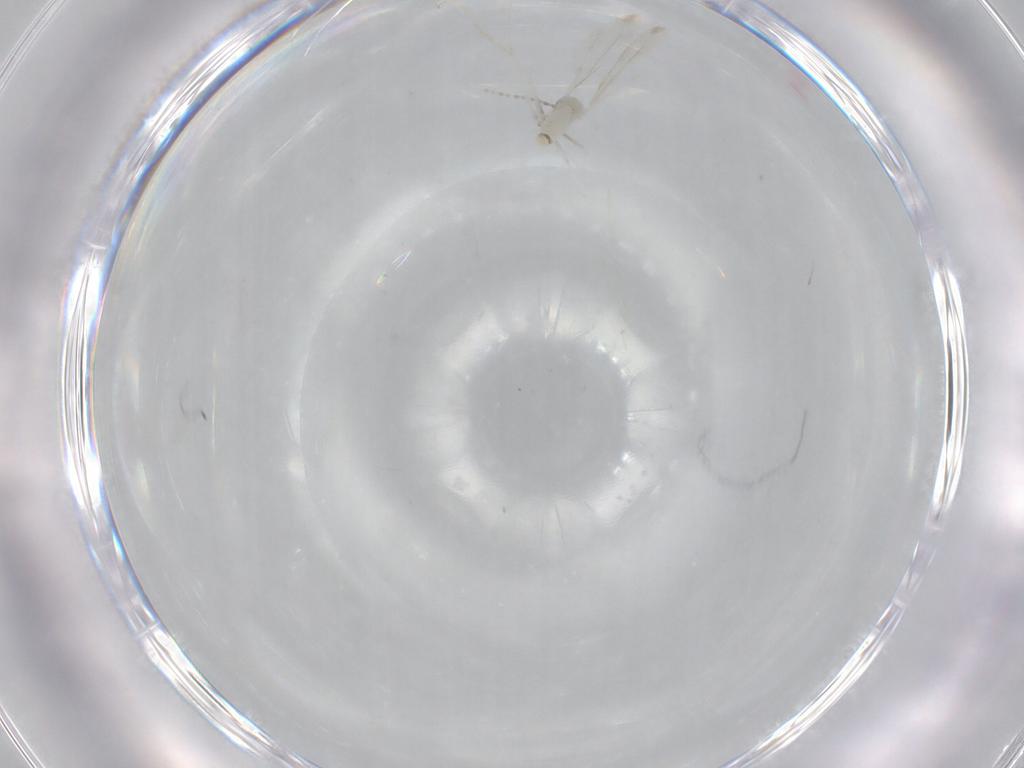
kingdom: Animalia
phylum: Arthropoda
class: Insecta
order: Diptera
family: Cecidomyiidae
